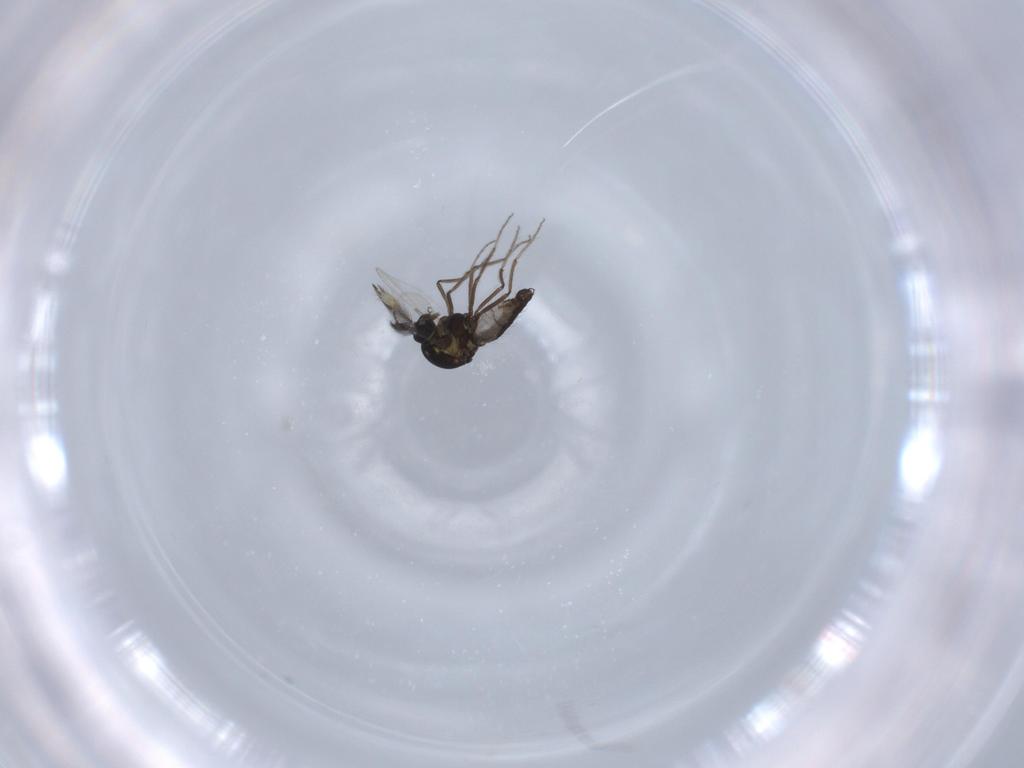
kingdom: Animalia
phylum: Arthropoda
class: Insecta
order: Diptera
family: Ceratopogonidae
